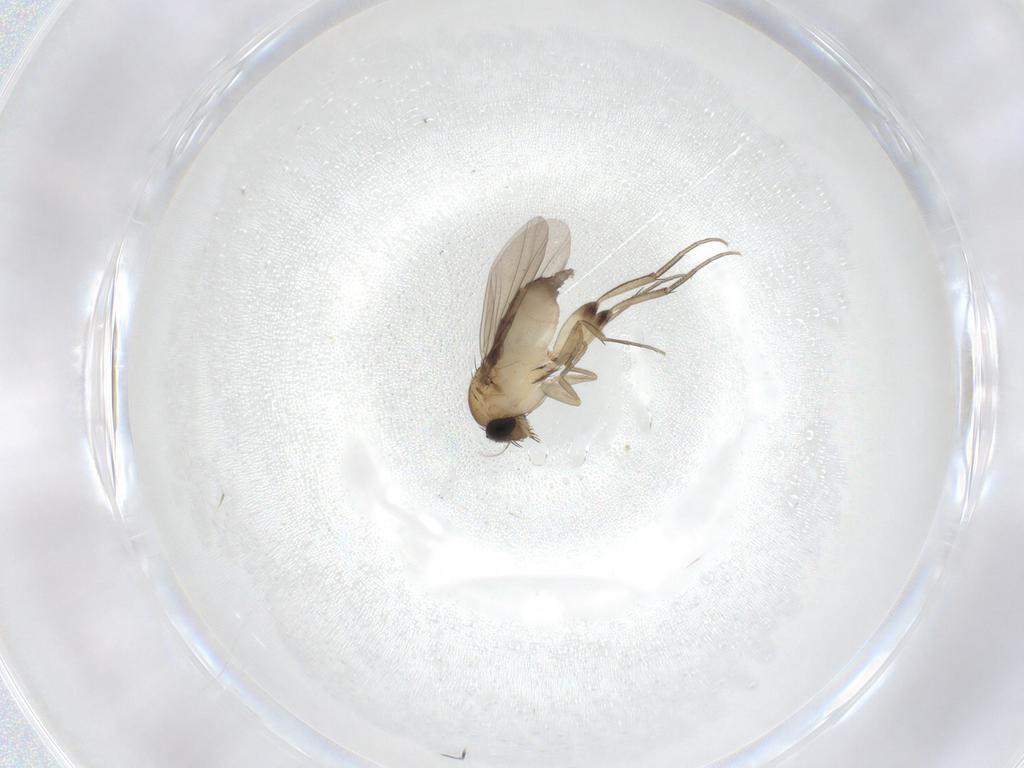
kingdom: Animalia
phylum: Arthropoda
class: Insecta
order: Diptera
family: Phoridae
